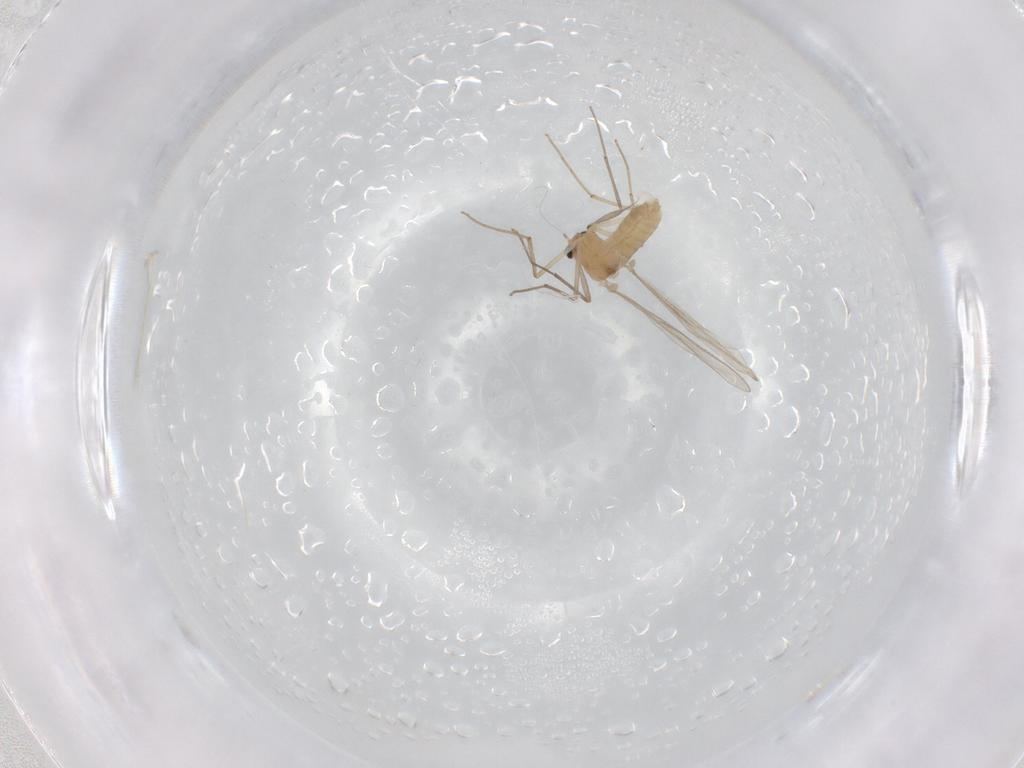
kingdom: Animalia
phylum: Arthropoda
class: Insecta
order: Diptera
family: Chironomidae
